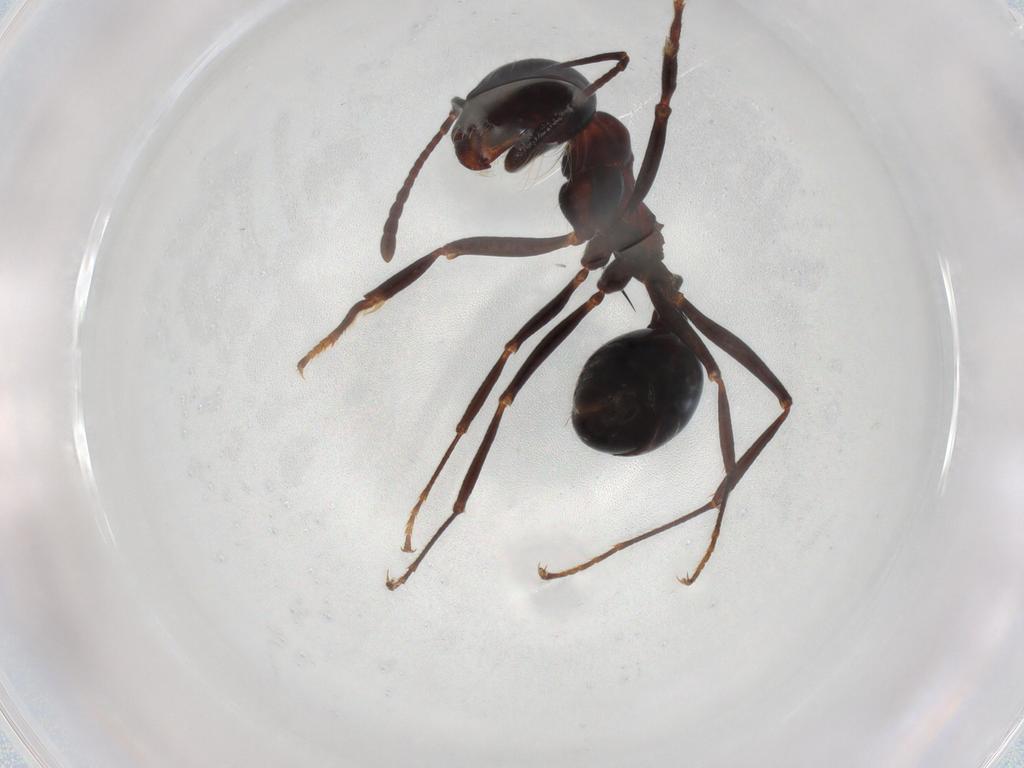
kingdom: Animalia
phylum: Arthropoda
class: Insecta
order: Hymenoptera
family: Formicidae
